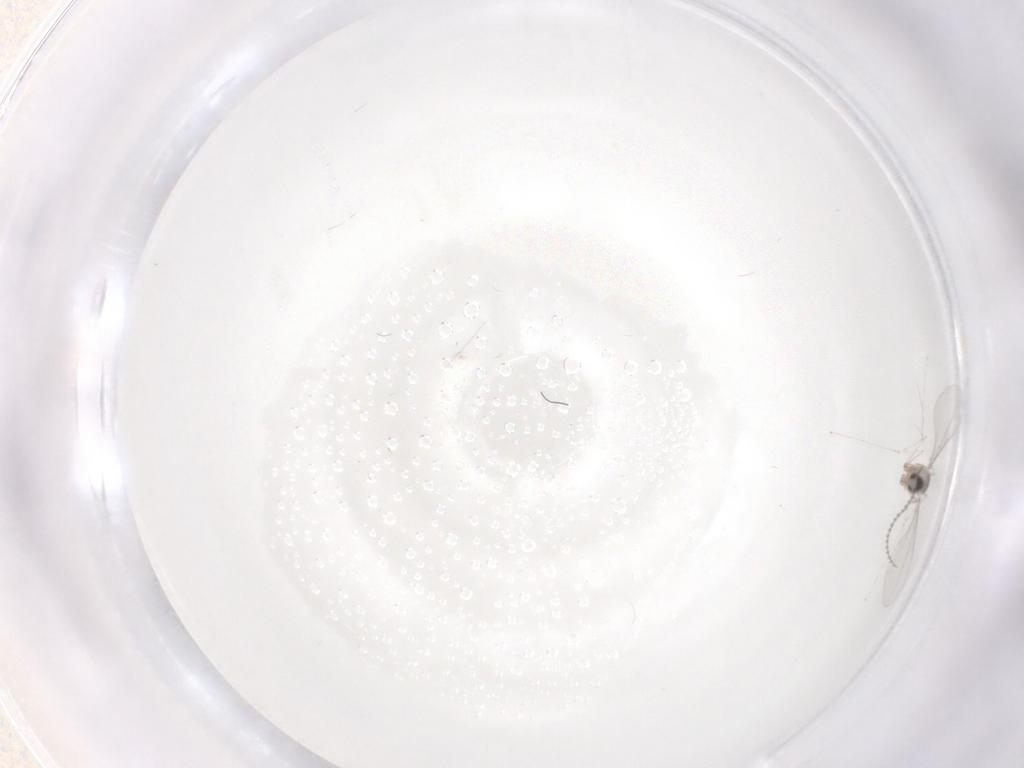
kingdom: Animalia
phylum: Arthropoda
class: Insecta
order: Diptera
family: Cecidomyiidae
